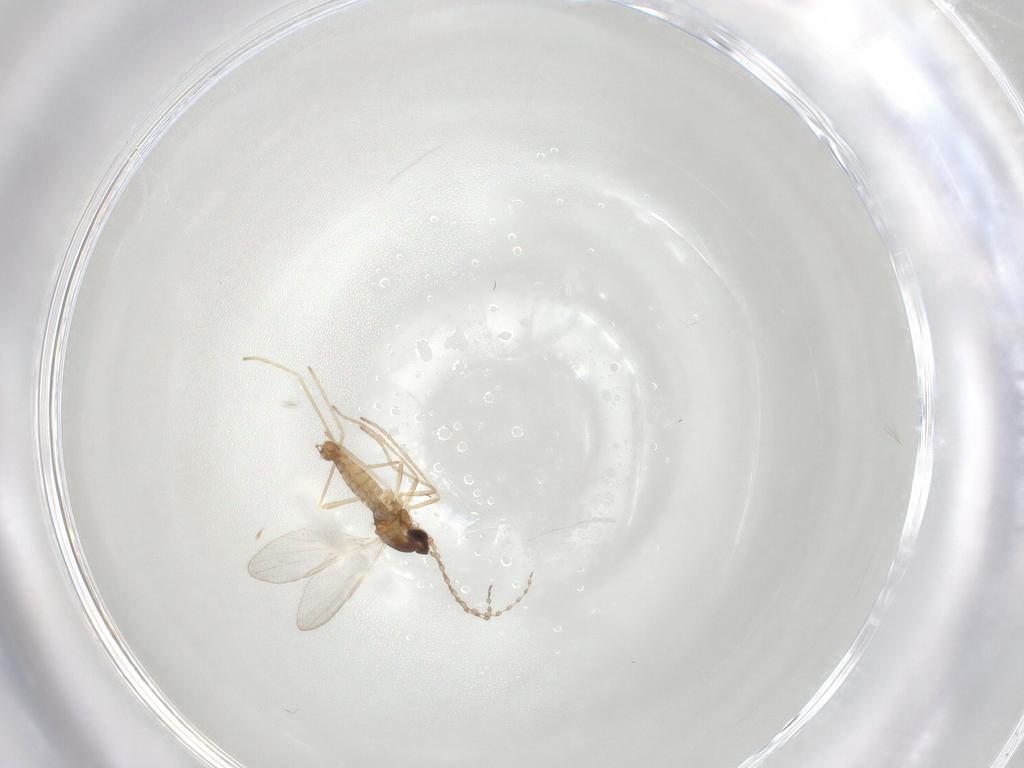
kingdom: Animalia
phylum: Arthropoda
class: Insecta
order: Diptera
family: Cecidomyiidae
